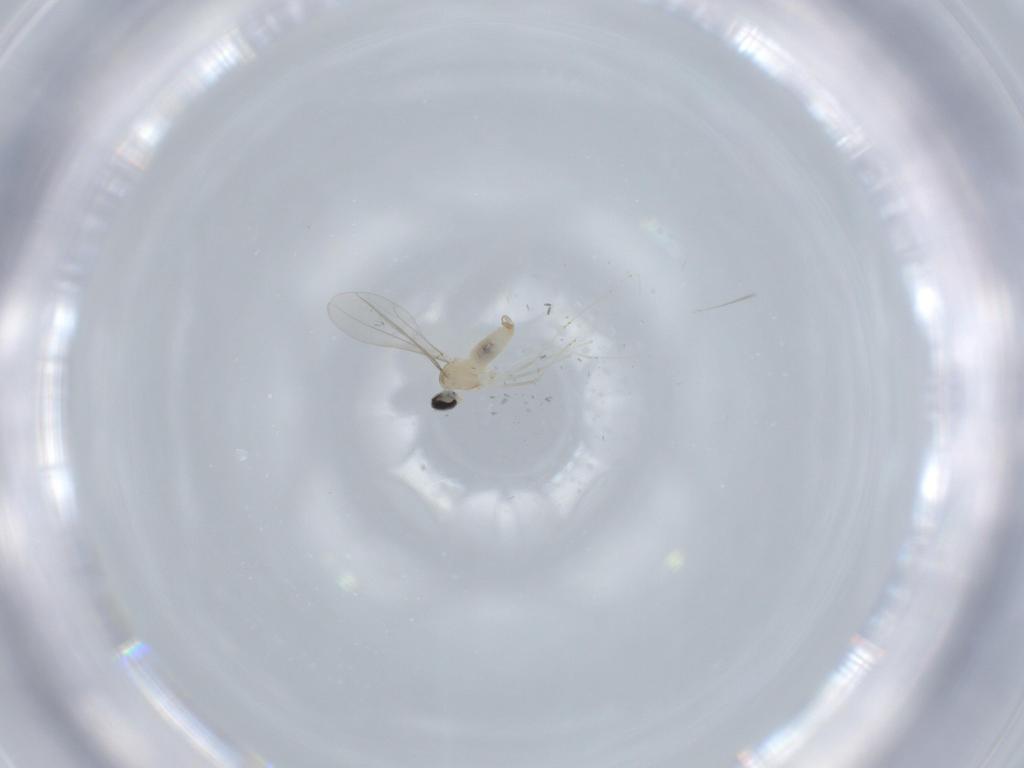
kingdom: Animalia
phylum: Arthropoda
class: Insecta
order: Diptera
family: Cecidomyiidae
